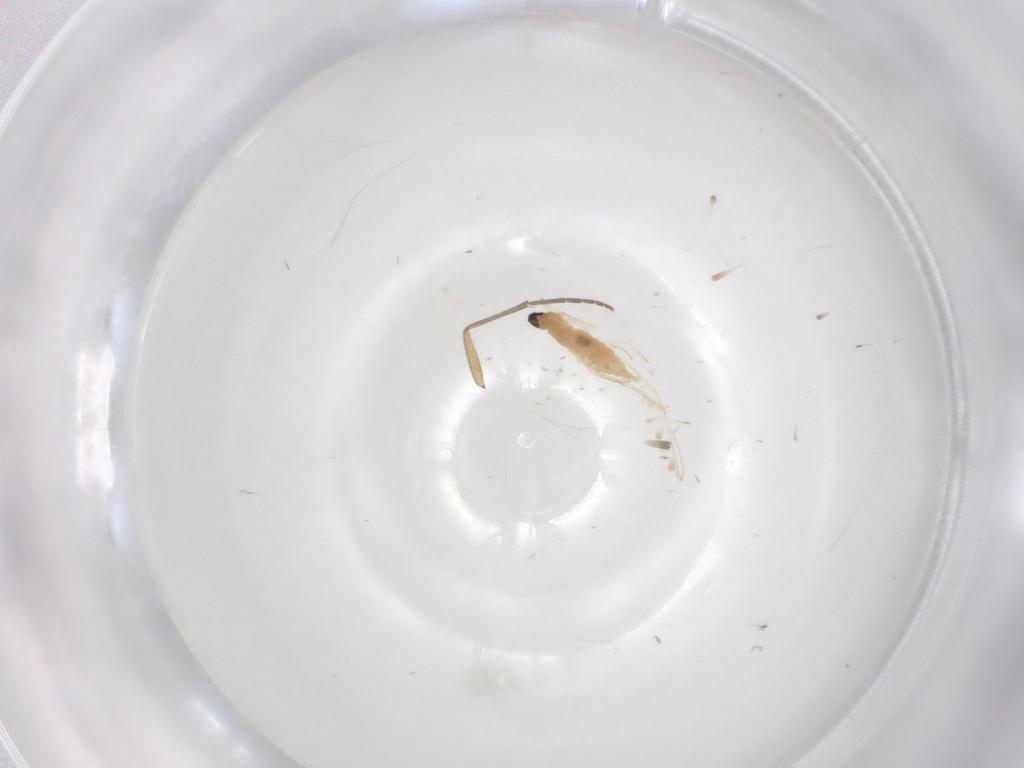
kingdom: Animalia
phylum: Arthropoda
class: Insecta
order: Diptera
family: Cecidomyiidae
